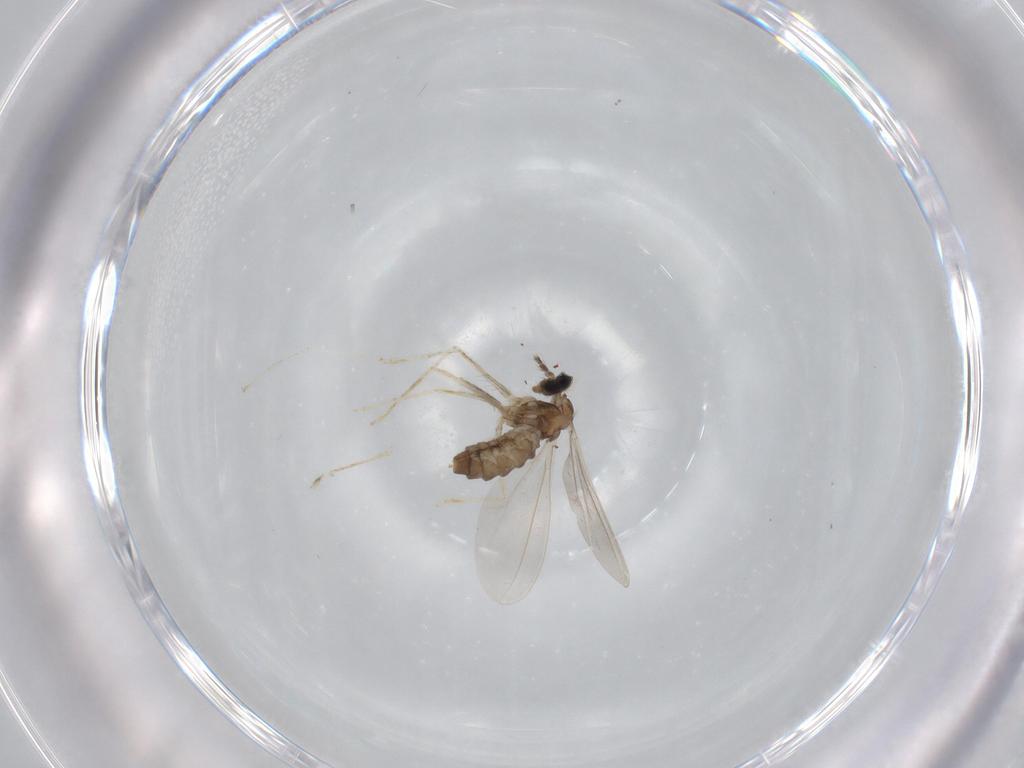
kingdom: Animalia
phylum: Arthropoda
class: Insecta
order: Diptera
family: Cecidomyiidae
